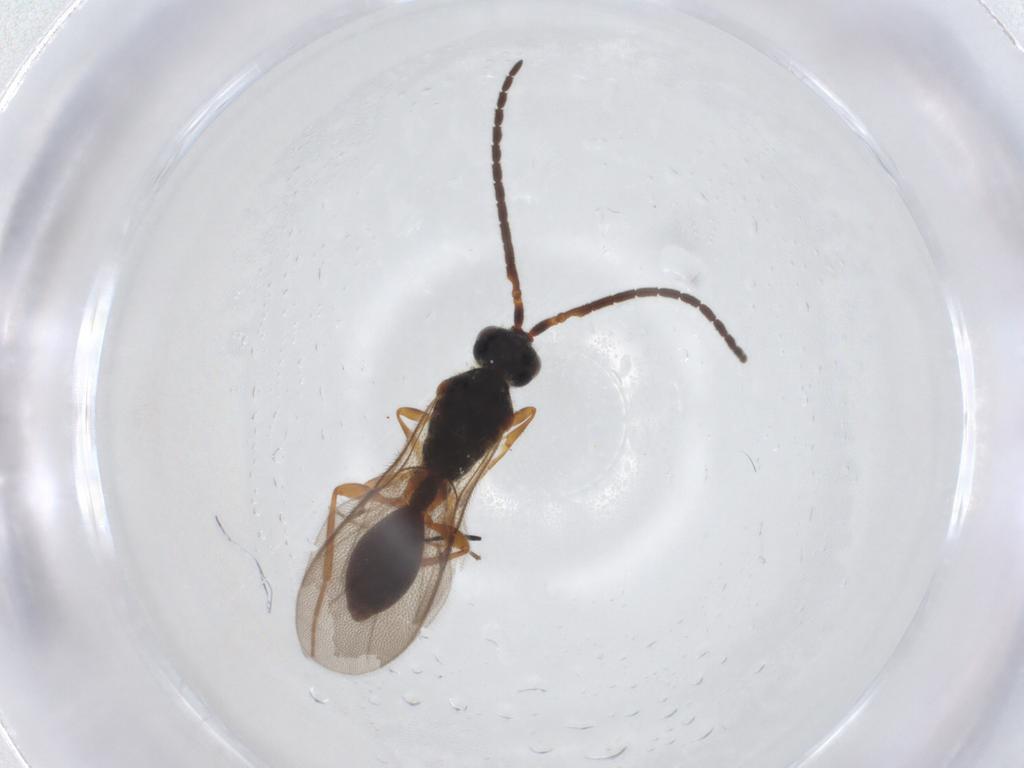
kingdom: Animalia
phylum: Arthropoda
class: Insecta
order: Hymenoptera
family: Diapriidae
